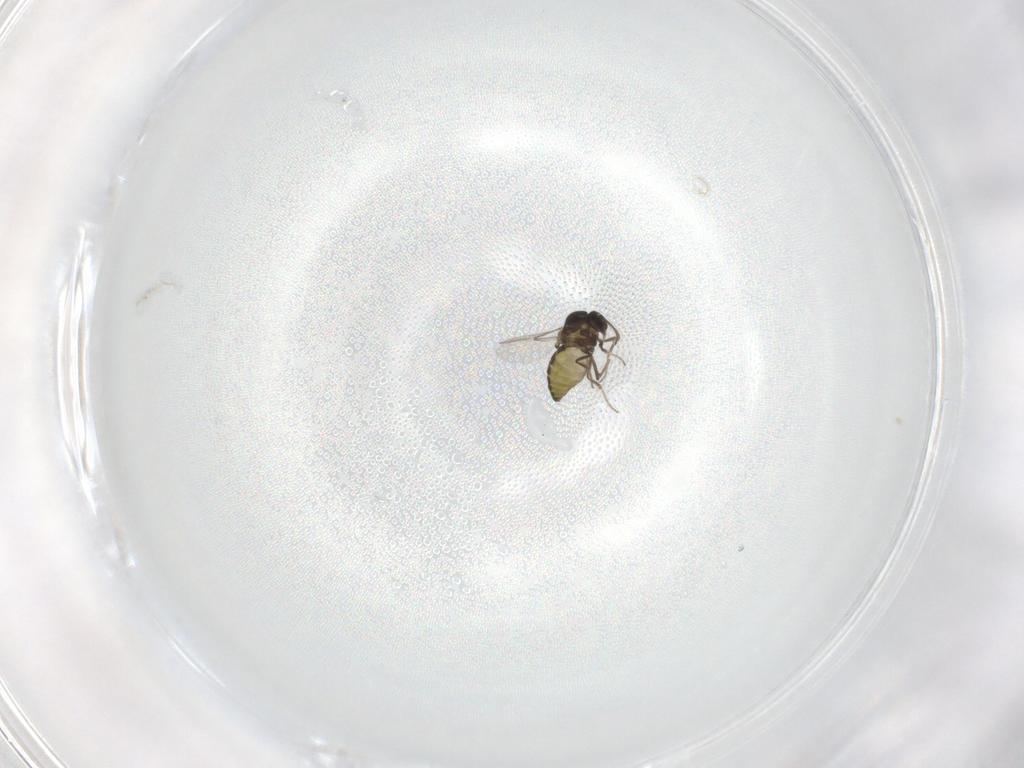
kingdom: Animalia
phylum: Arthropoda
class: Insecta
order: Diptera
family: Ceratopogonidae
